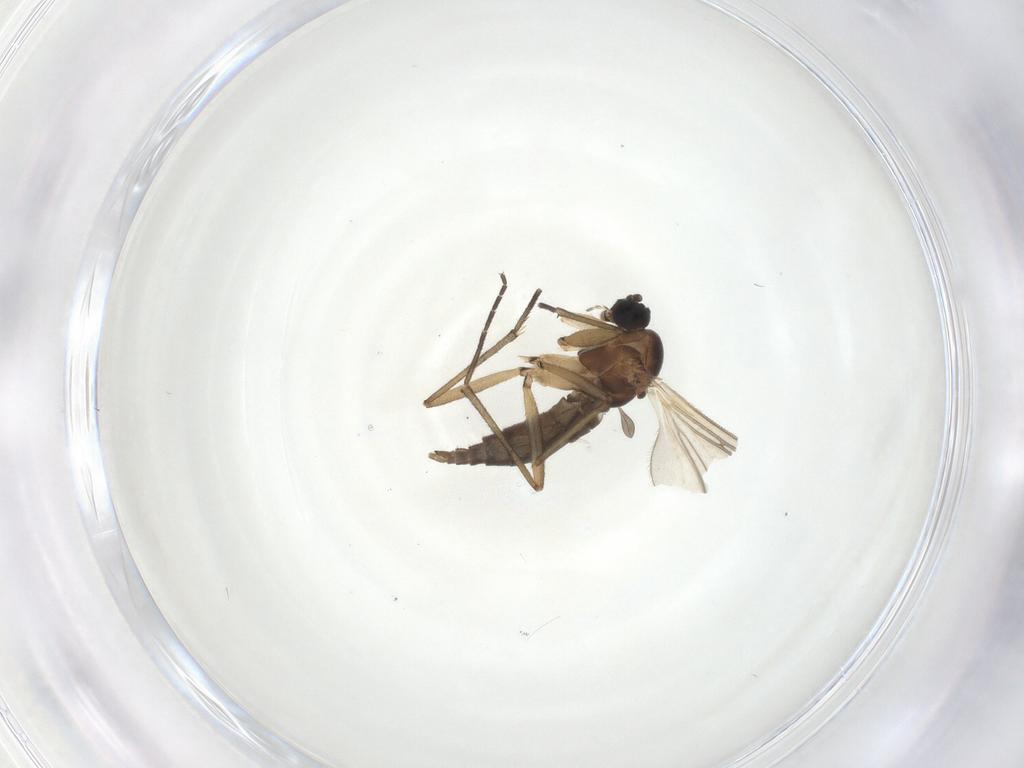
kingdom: Animalia
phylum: Arthropoda
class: Insecta
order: Diptera
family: Sciaridae
